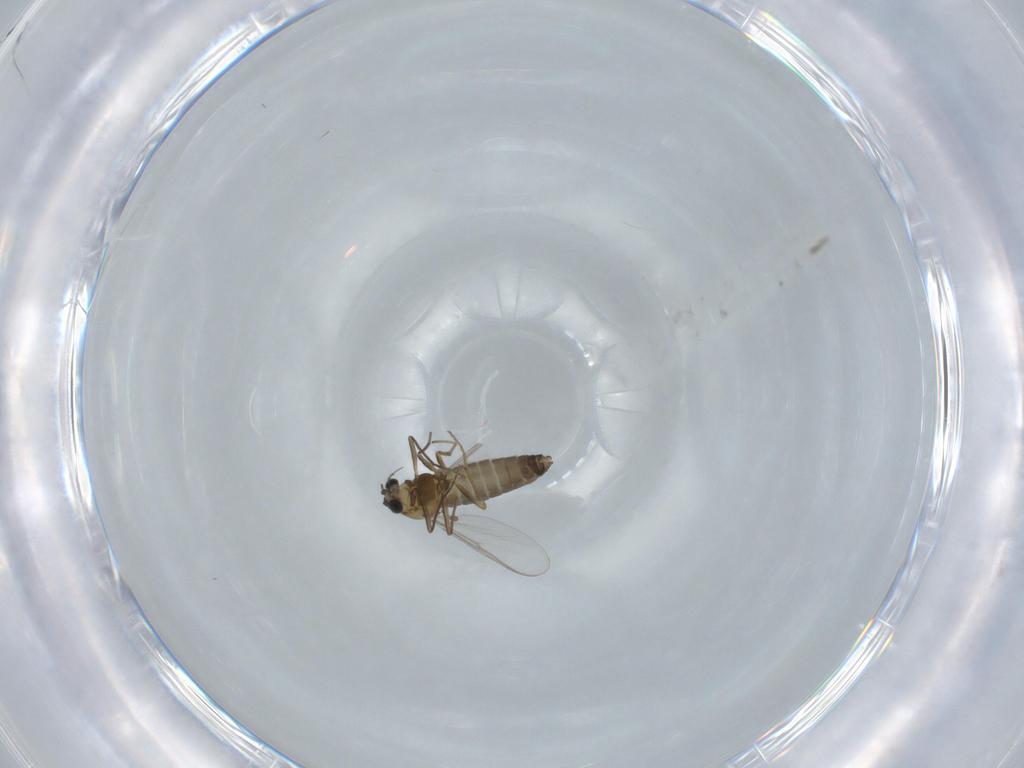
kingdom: Animalia
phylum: Arthropoda
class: Insecta
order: Diptera
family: Chironomidae
